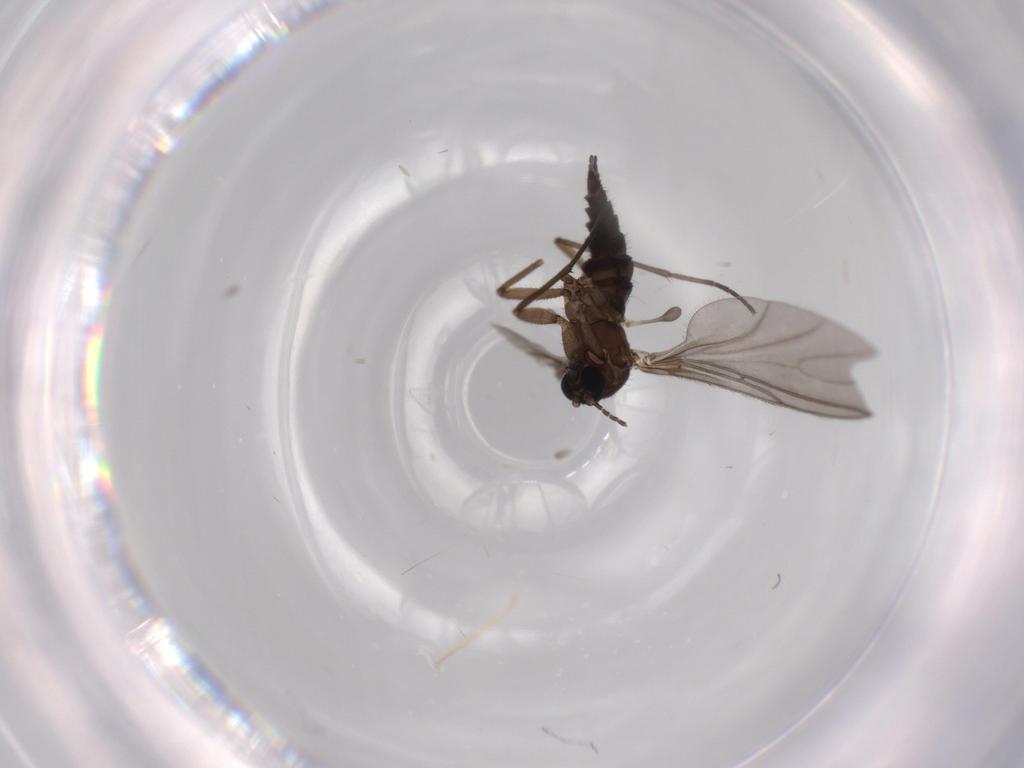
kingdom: Animalia
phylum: Arthropoda
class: Insecta
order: Diptera
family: Sciaridae
